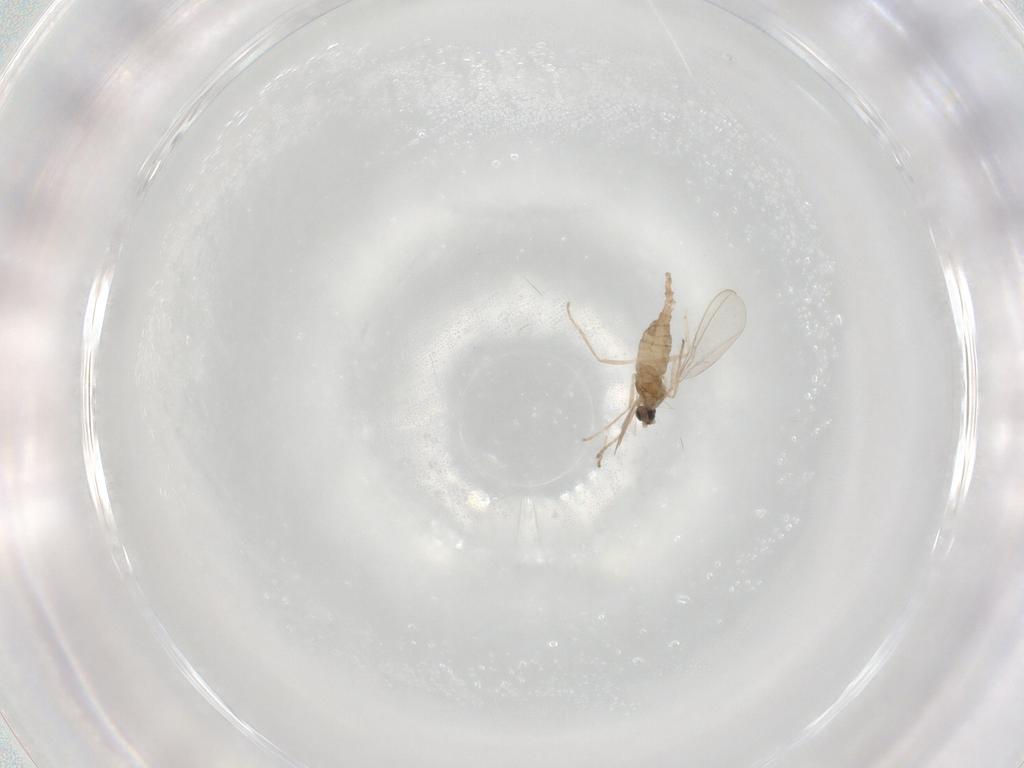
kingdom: Animalia
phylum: Arthropoda
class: Insecta
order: Diptera
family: Cecidomyiidae
